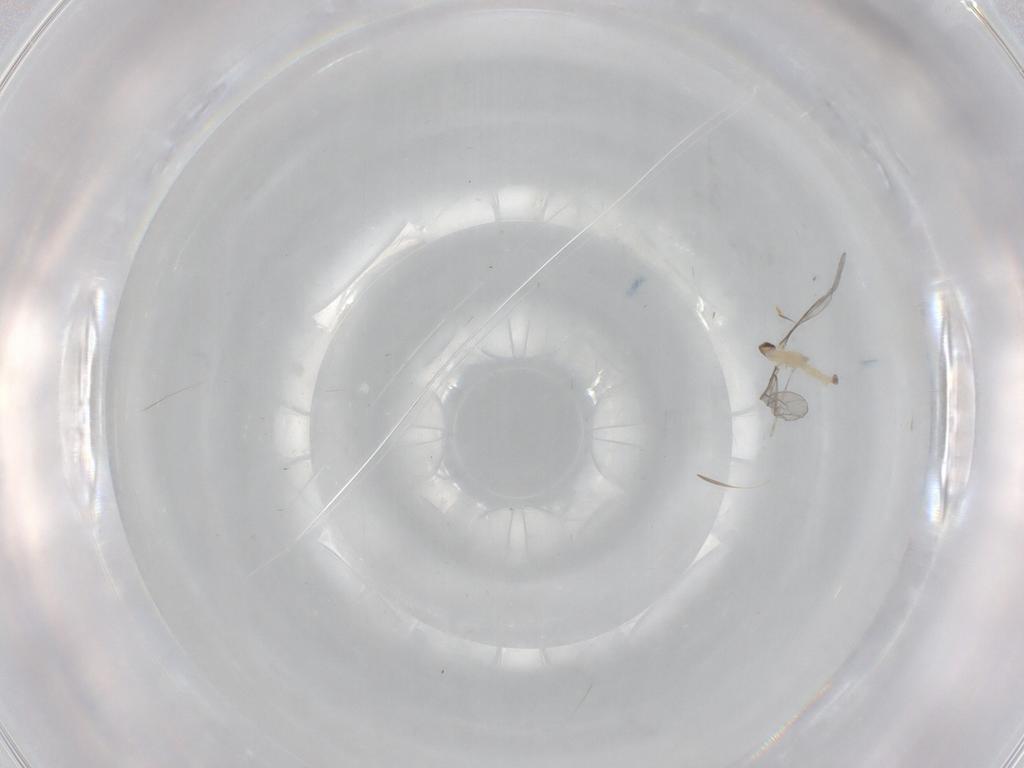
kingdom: Animalia
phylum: Arthropoda
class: Insecta
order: Diptera
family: Cecidomyiidae
